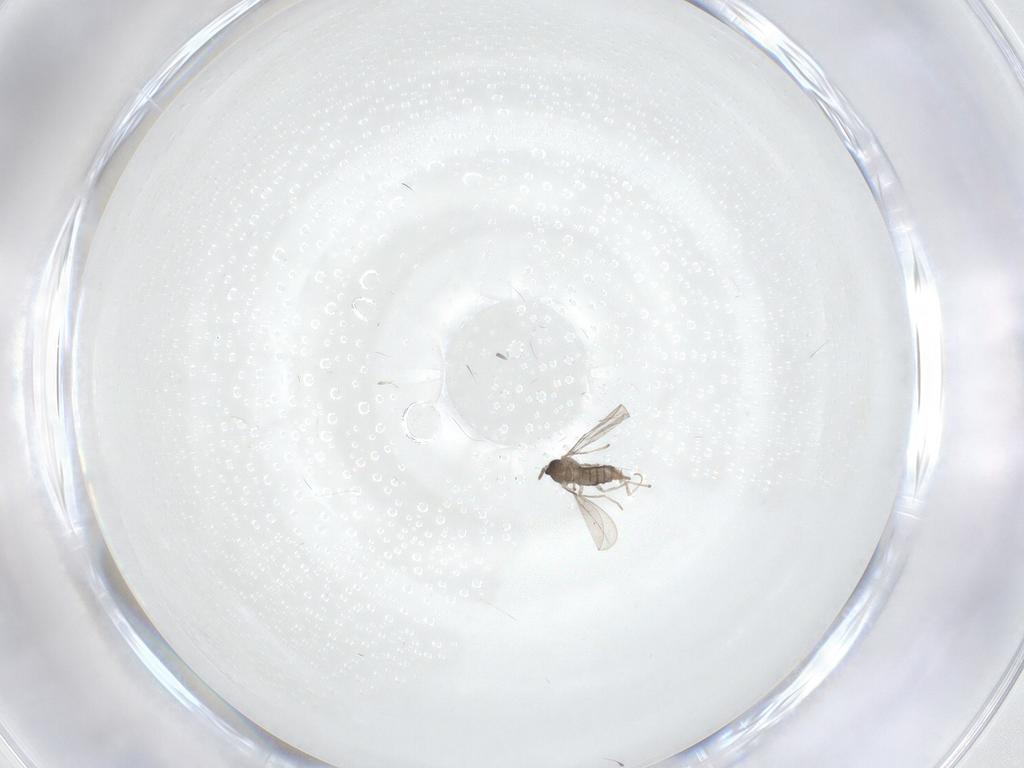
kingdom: Animalia
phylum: Arthropoda
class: Insecta
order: Diptera
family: Cecidomyiidae
